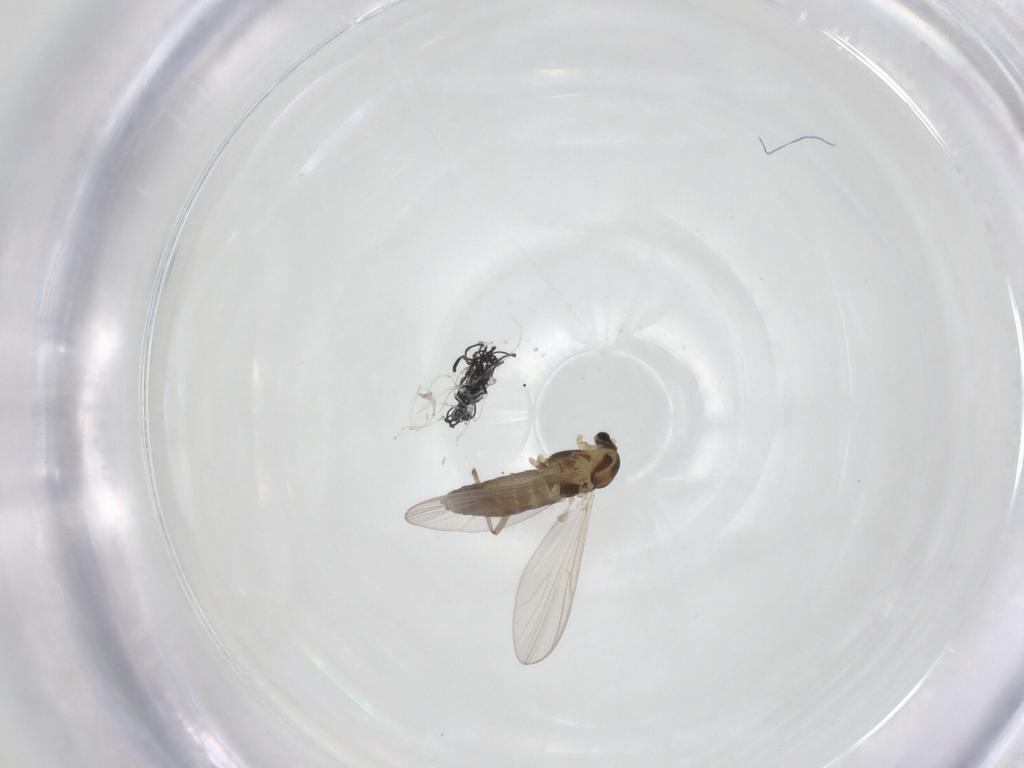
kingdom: Animalia
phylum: Arthropoda
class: Insecta
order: Diptera
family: Chironomidae
